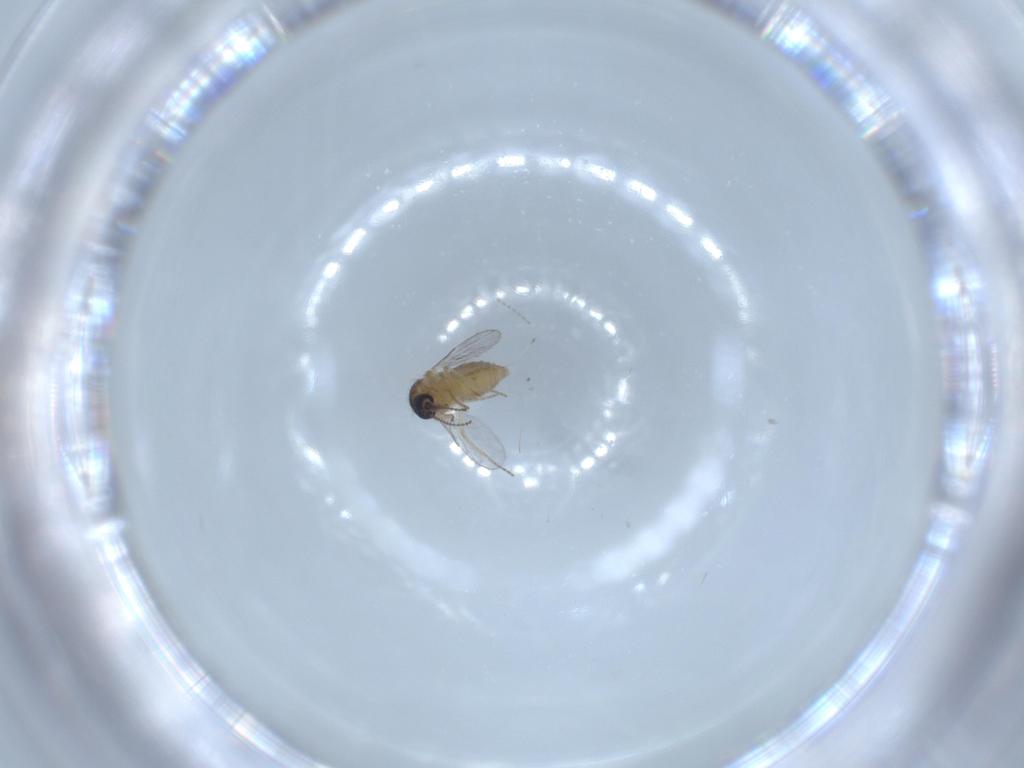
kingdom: Animalia
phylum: Arthropoda
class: Insecta
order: Diptera
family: Ceratopogonidae
